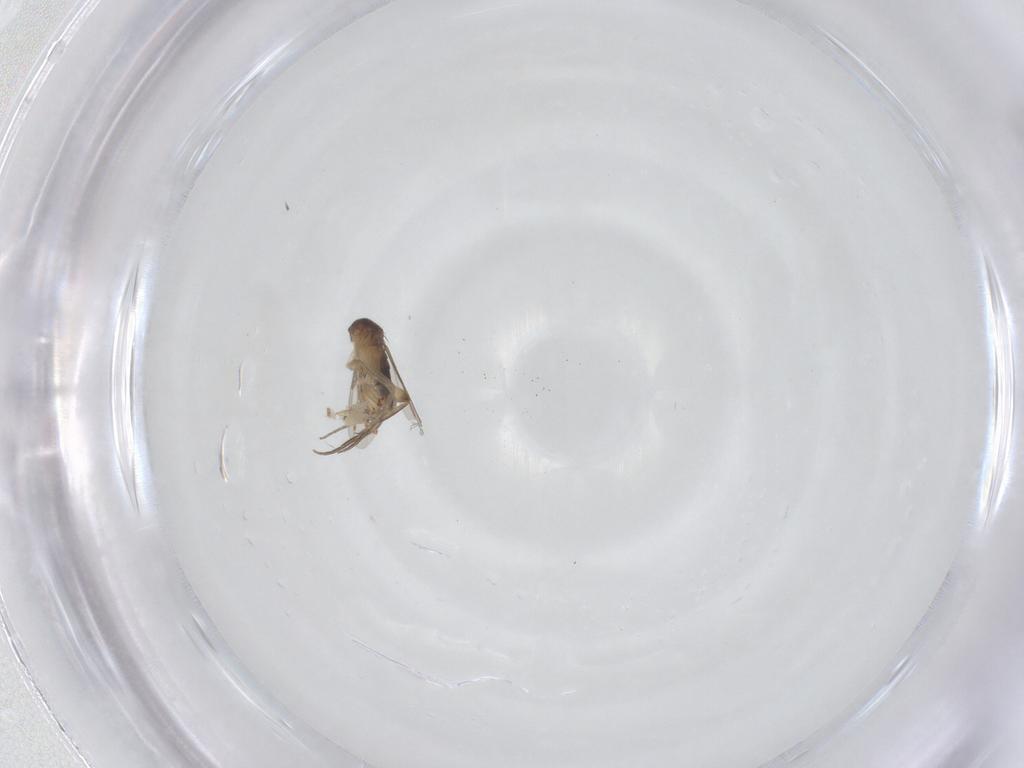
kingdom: Animalia
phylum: Arthropoda
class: Insecta
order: Diptera
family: Phoridae
